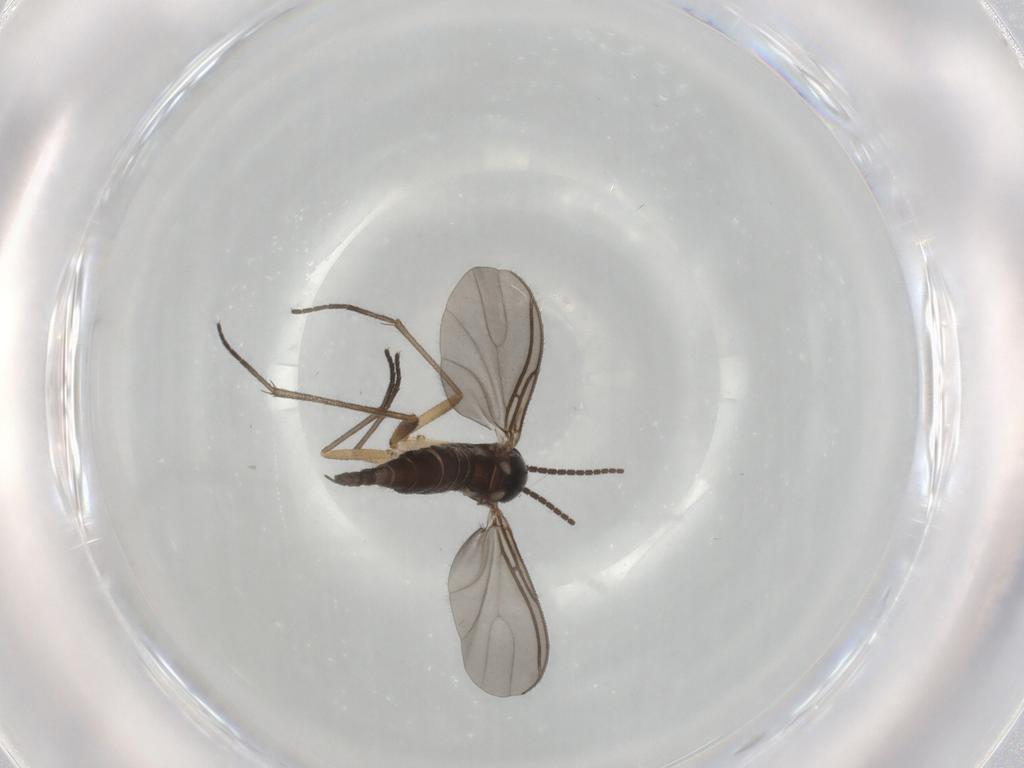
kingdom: Animalia
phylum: Arthropoda
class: Insecta
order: Diptera
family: Sciaridae
